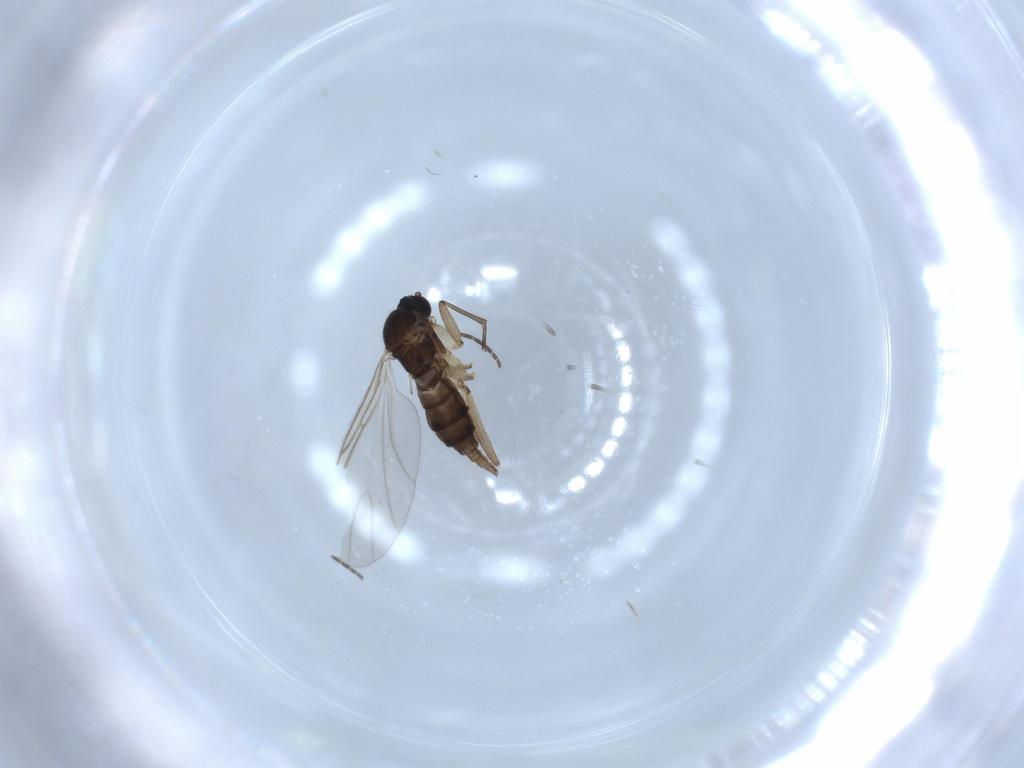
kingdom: Animalia
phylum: Arthropoda
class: Insecta
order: Diptera
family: Sciaridae
